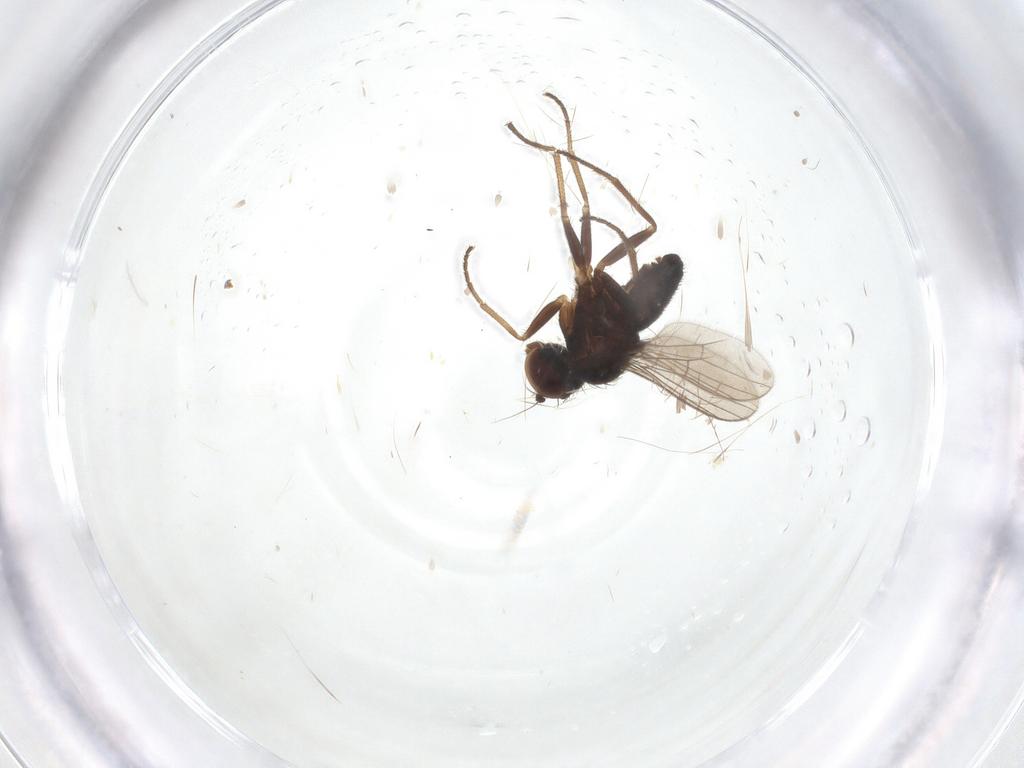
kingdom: Animalia
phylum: Arthropoda
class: Insecta
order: Diptera
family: Dolichopodidae
